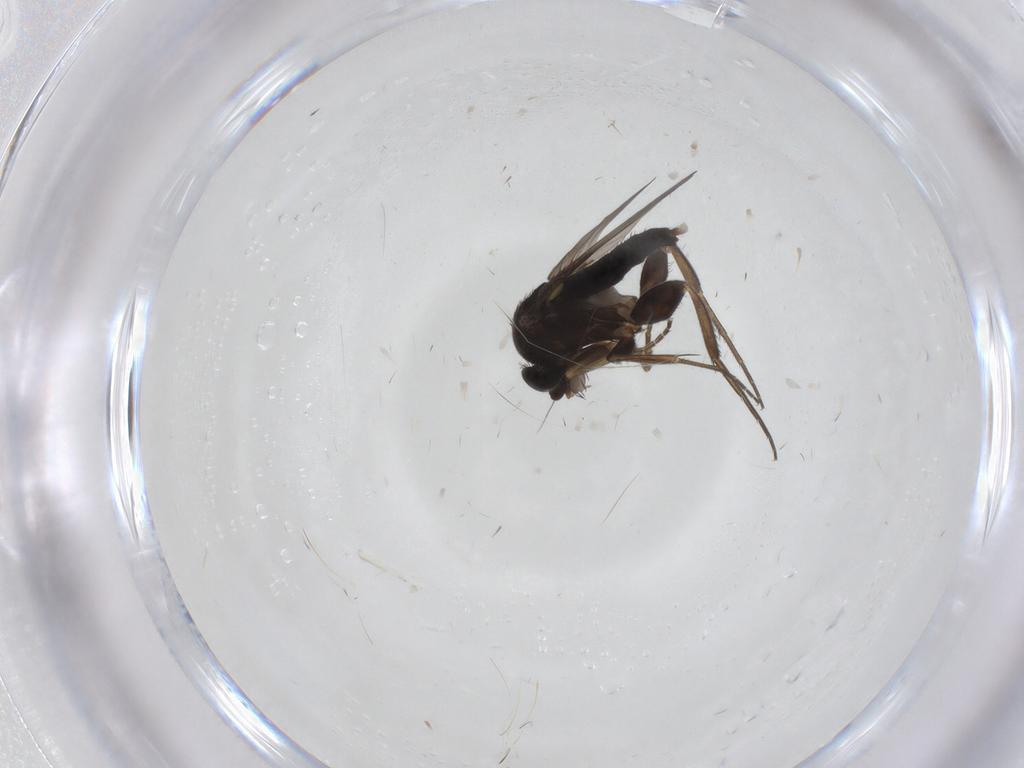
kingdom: Animalia
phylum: Arthropoda
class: Insecta
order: Diptera
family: Phoridae
